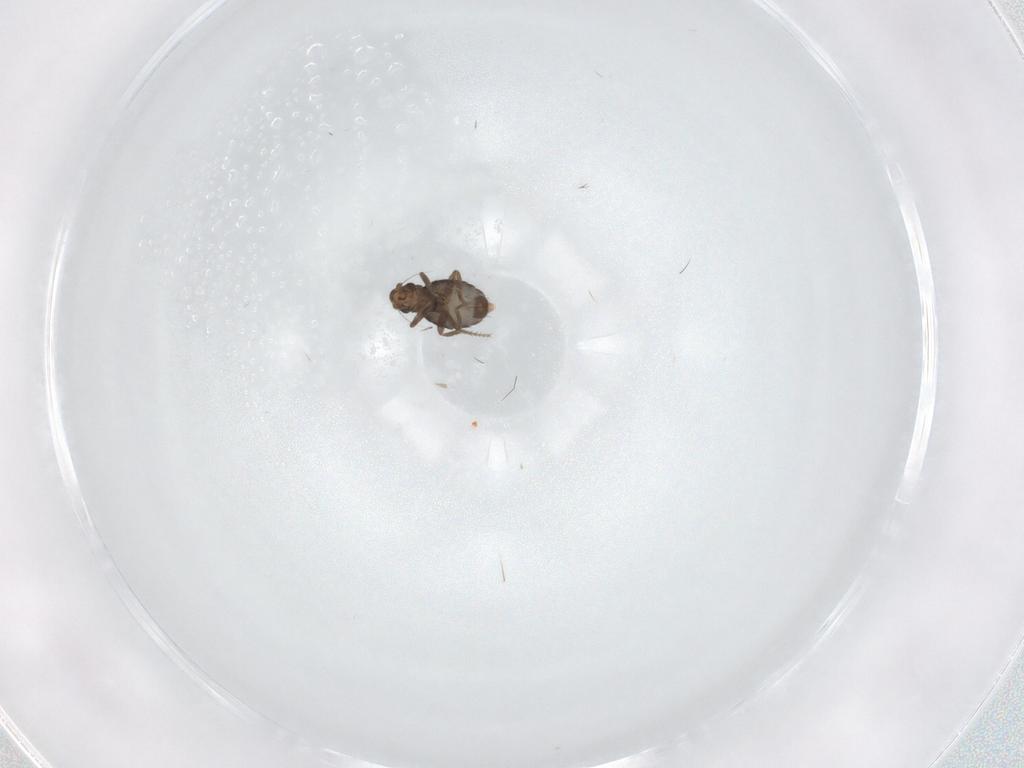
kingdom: Animalia
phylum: Arthropoda
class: Insecta
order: Diptera
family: Phoridae
